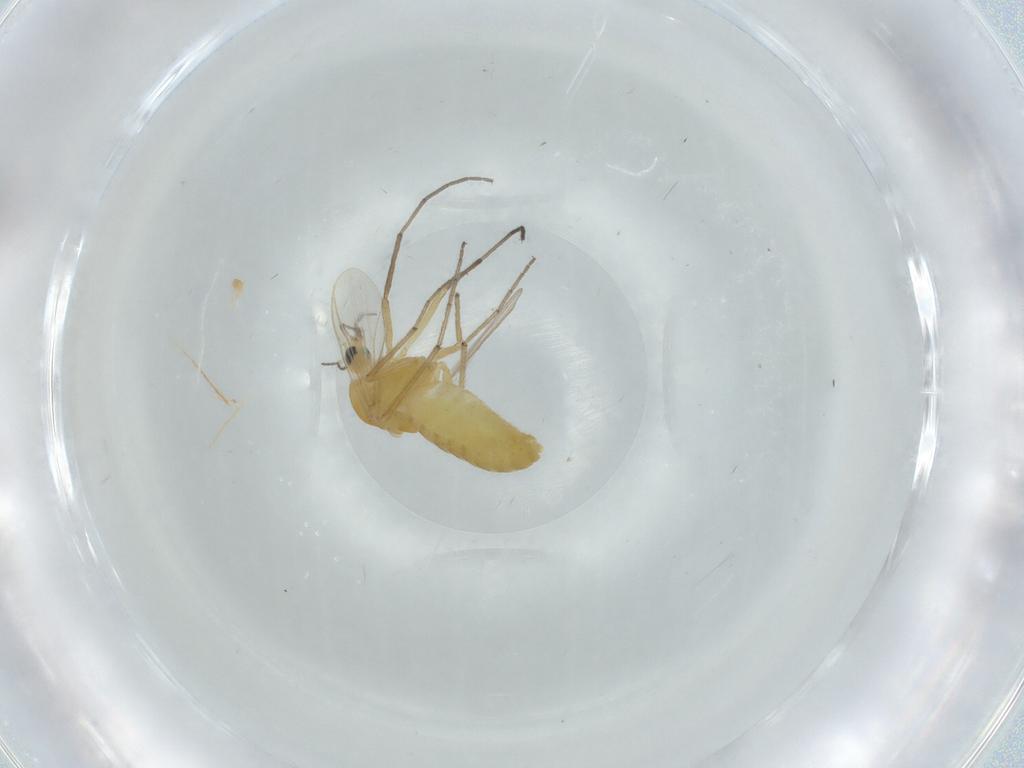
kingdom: Animalia
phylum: Arthropoda
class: Insecta
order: Diptera
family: Chironomidae
